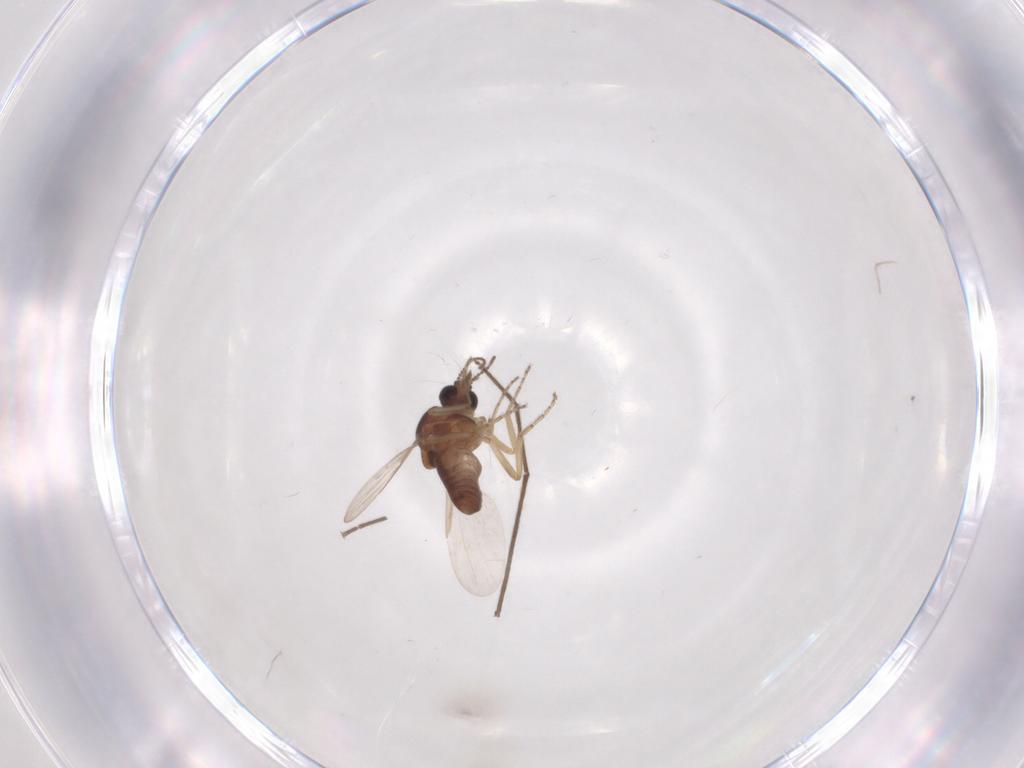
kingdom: Animalia
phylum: Arthropoda
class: Insecta
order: Diptera
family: Ceratopogonidae
